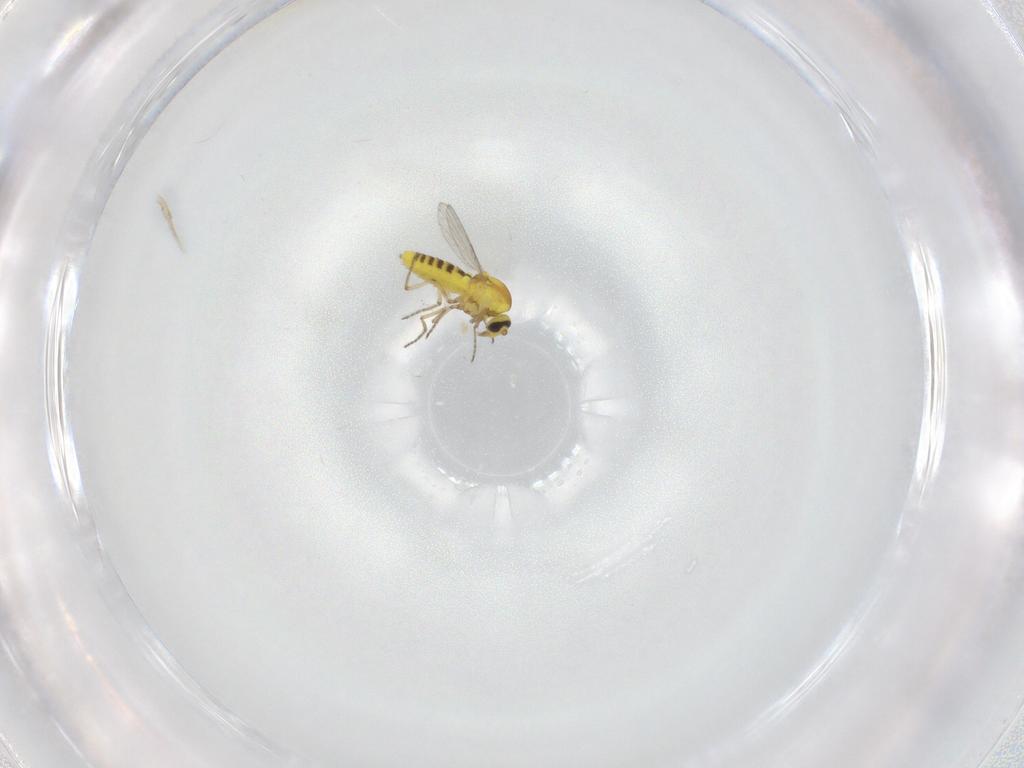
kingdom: Animalia
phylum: Arthropoda
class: Insecta
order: Diptera
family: Ceratopogonidae
